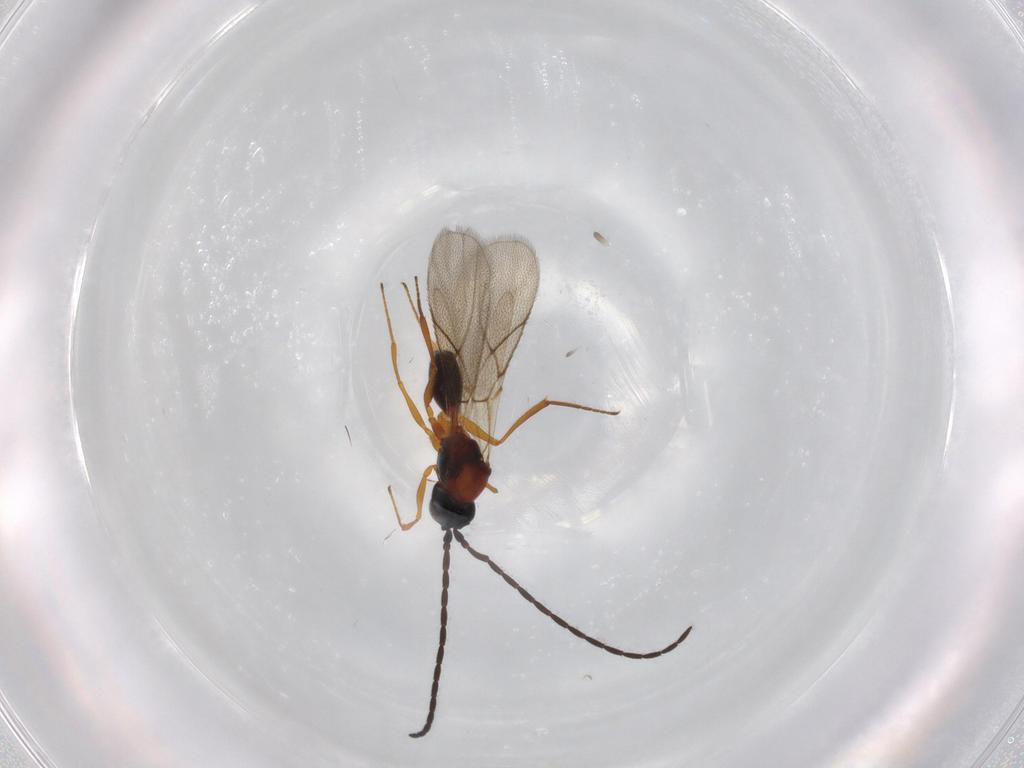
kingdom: Animalia
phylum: Arthropoda
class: Insecta
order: Hymenoptera
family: Figitidae
